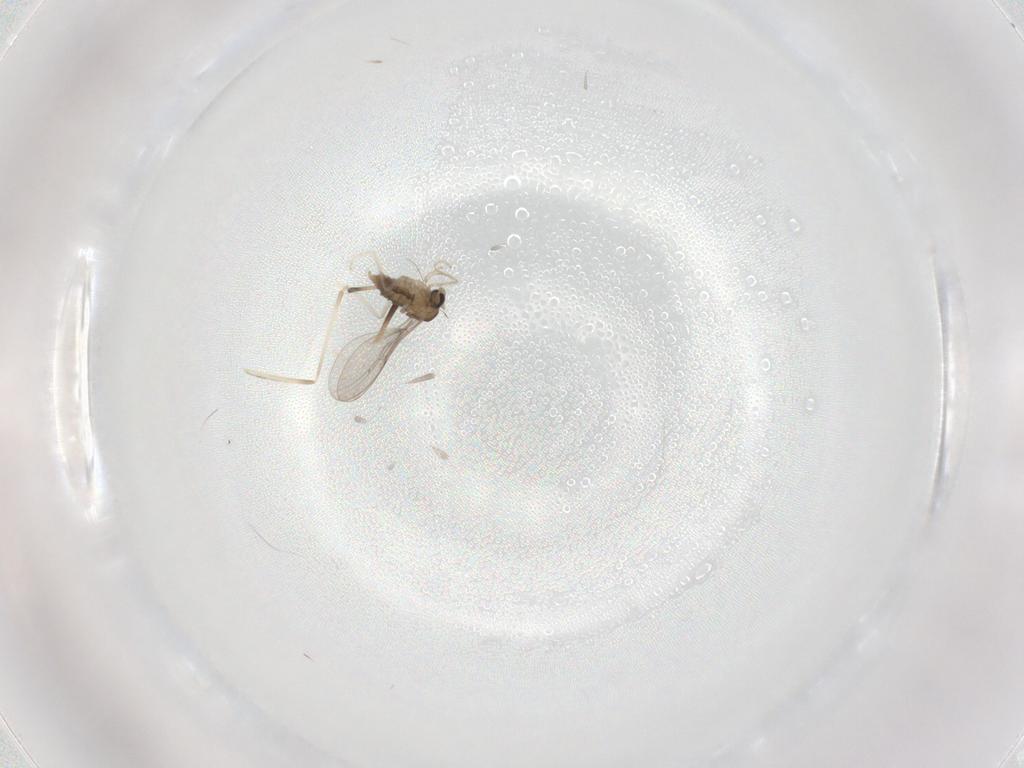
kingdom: Animalia
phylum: Arthropoda
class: Insecta
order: Diptera
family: Cecidomyiidae
